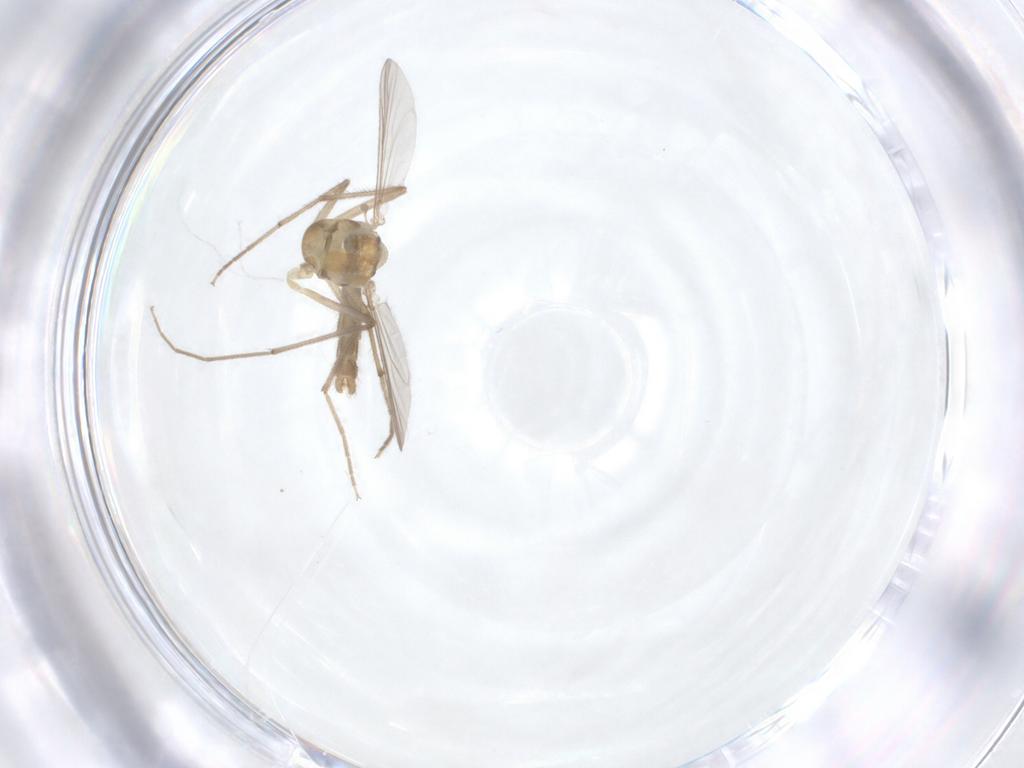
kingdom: Animalia
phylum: Arthropoda
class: Insecta
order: Diptera
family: Chironomidae
